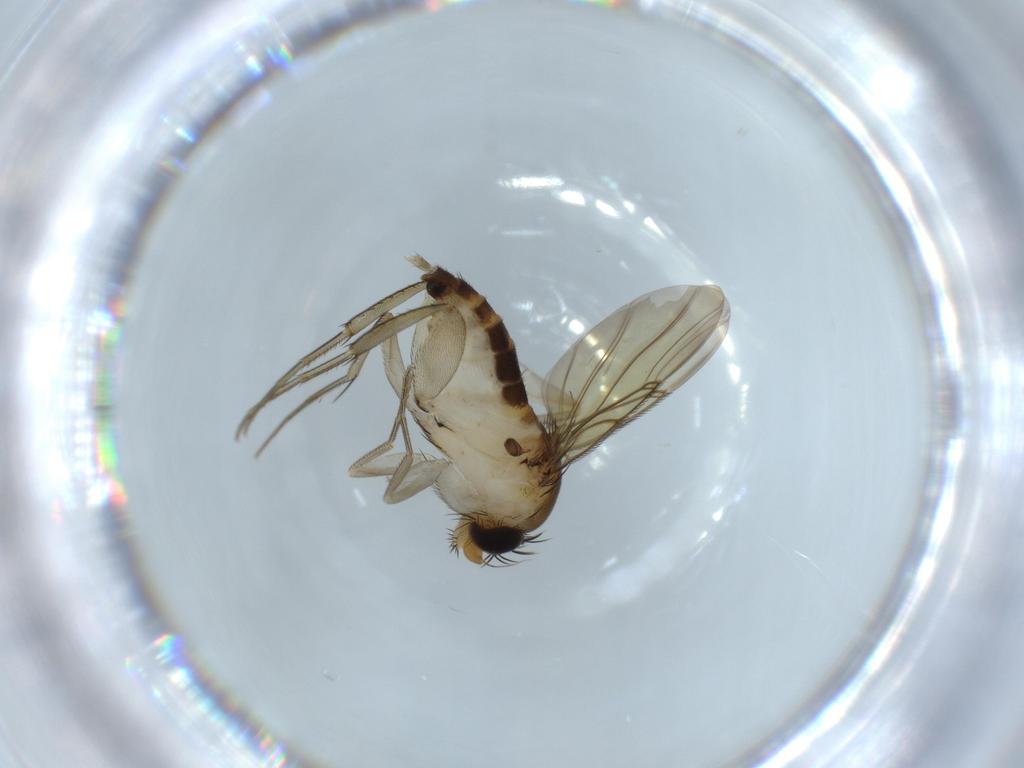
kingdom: Animalia
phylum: Arthropoda
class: Insecta
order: Diptera
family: Phoridae
